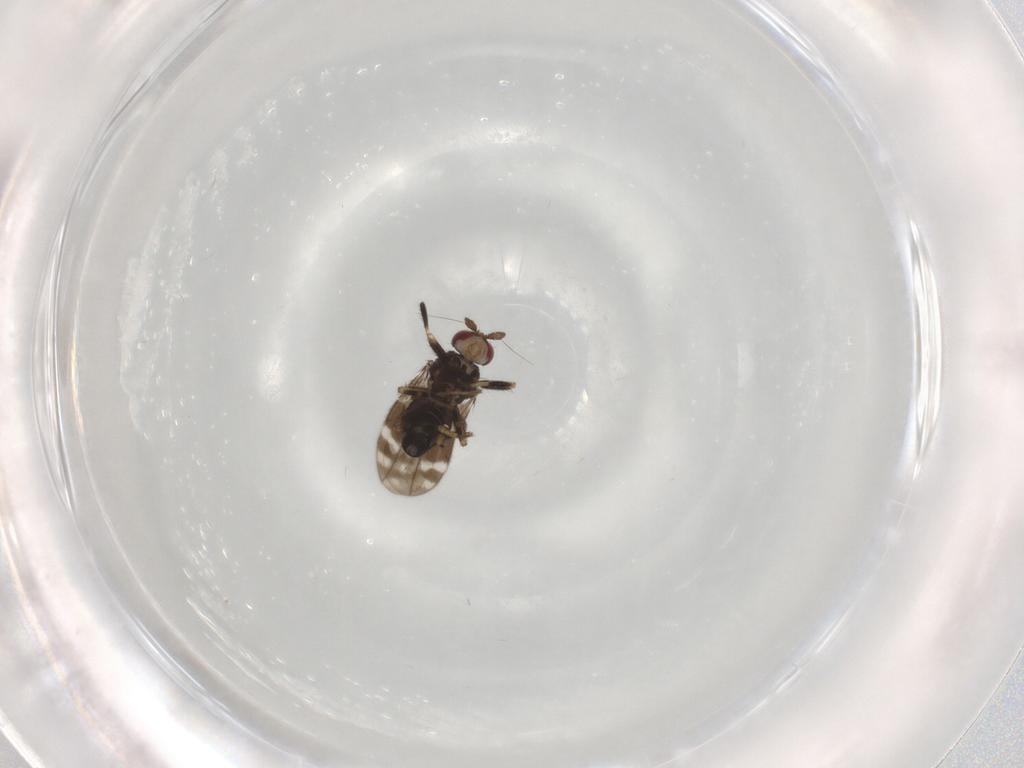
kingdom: Animalia
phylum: Arthropoda
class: Insecta
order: Diptera
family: Sphaeroceridae
